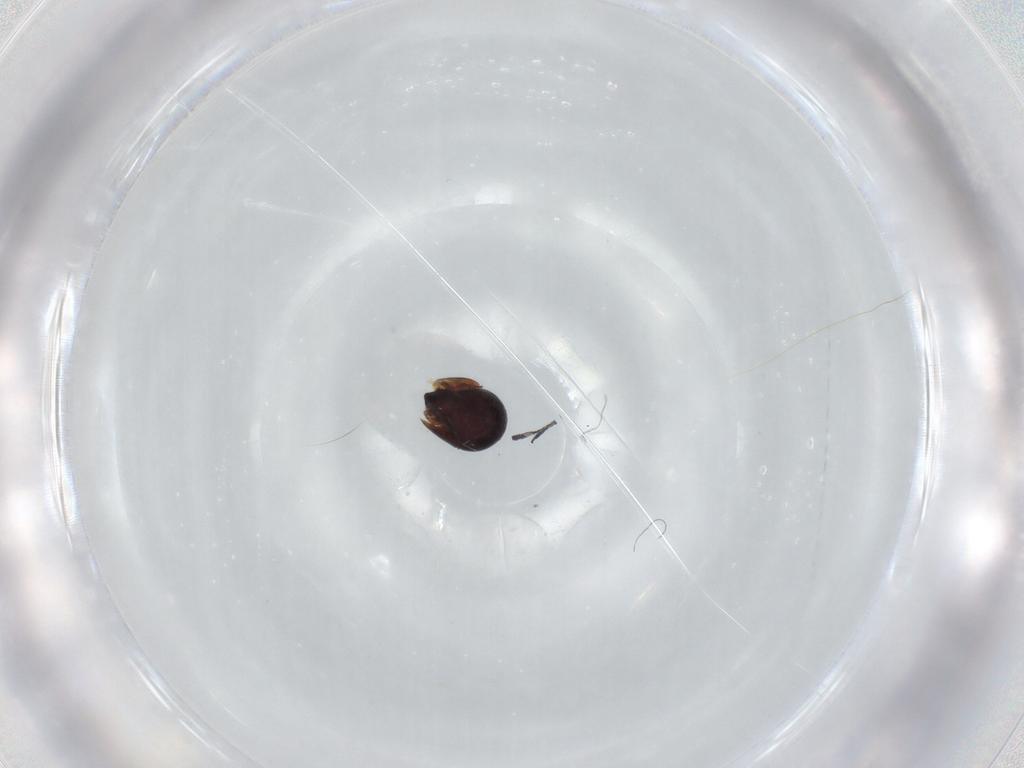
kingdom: Animalia
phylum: Arthropoda
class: Arachnida
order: Sarcoptiformes
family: Ceratozetidae
